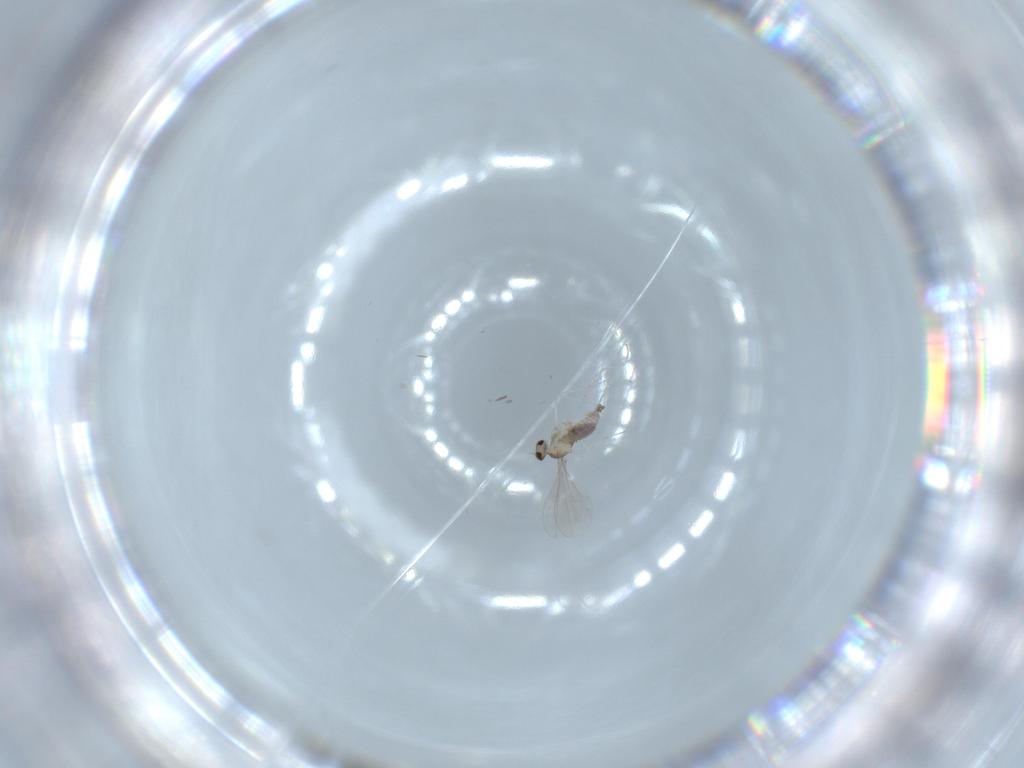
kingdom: Animalia
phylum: Arthropoda
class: Insecta
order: Diptera
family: Cecidomyiidae
